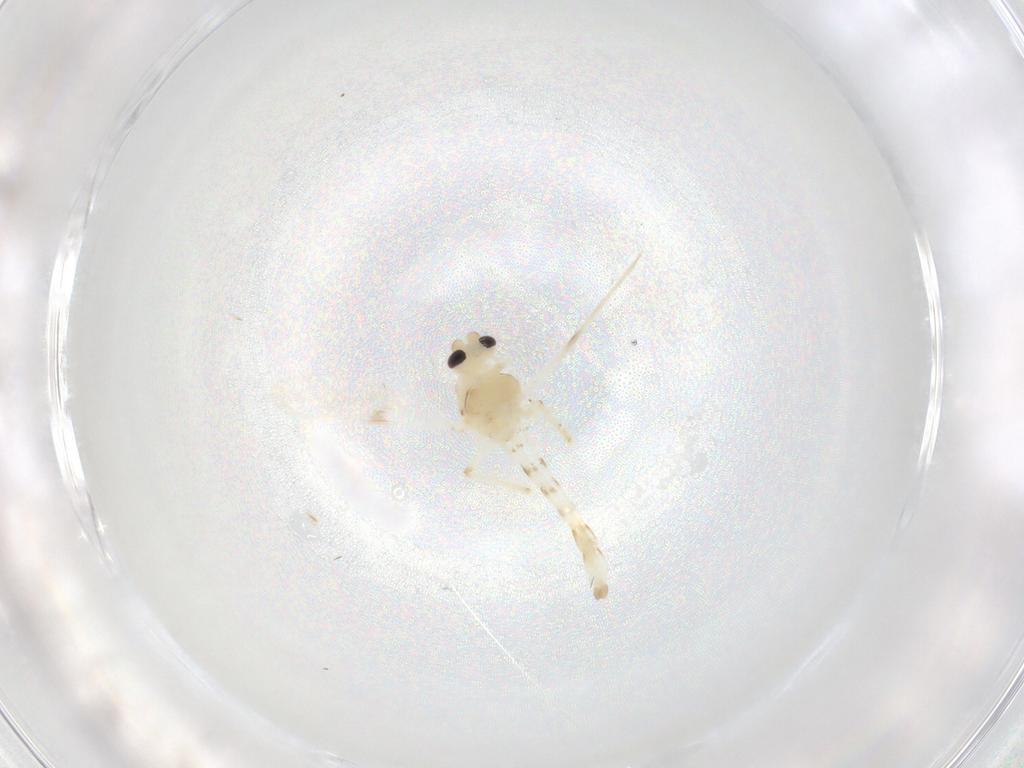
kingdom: Animalia
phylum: Arthropoda
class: Insecta
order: Diptera
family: Chironomidae
